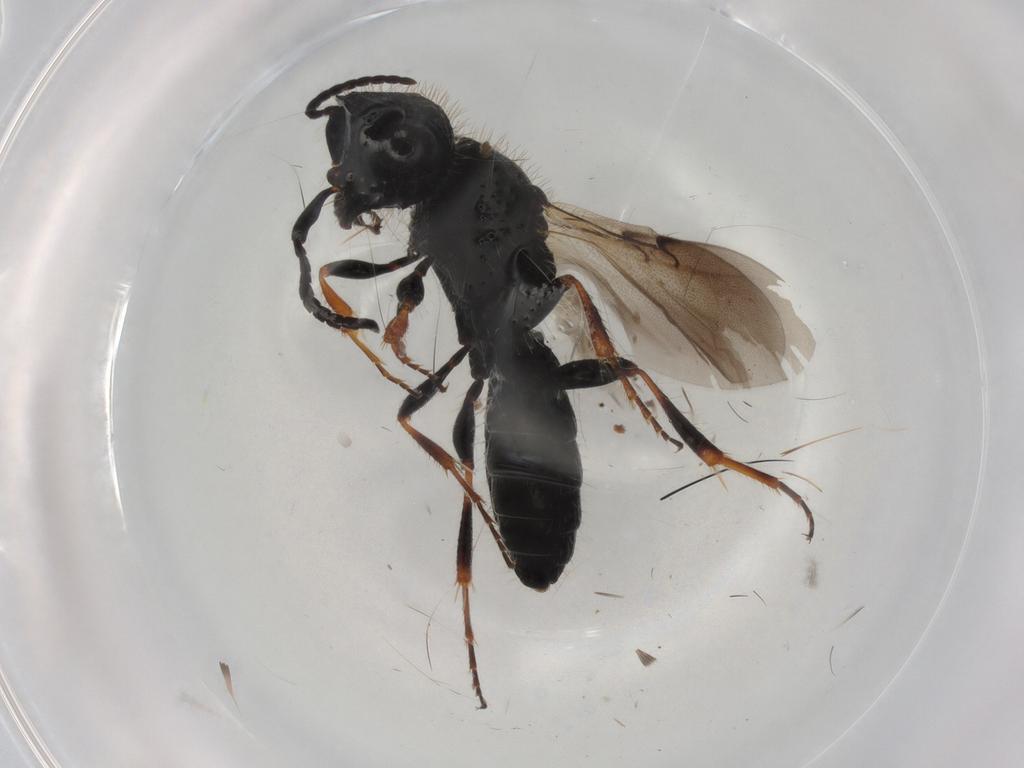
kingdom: Animalia
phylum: Arthropoda
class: Insecta
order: Hymenoptera
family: Scelionidae
